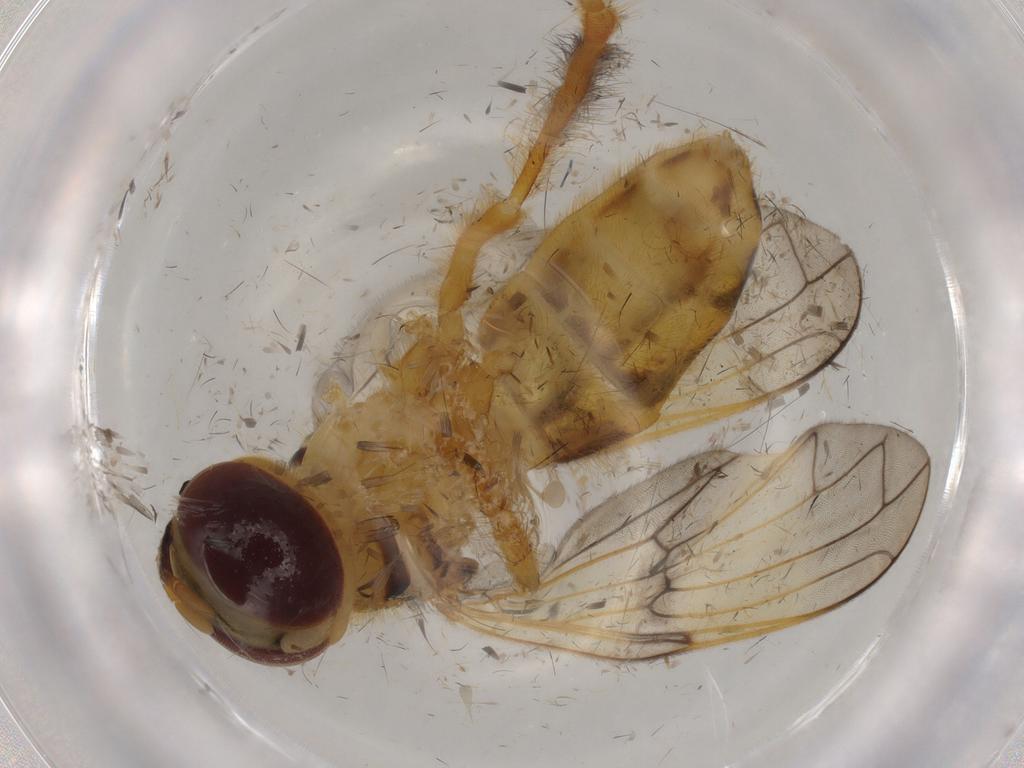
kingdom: Animalia
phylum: Arthropoda
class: Insecta
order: Diptera
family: Syrphidae
